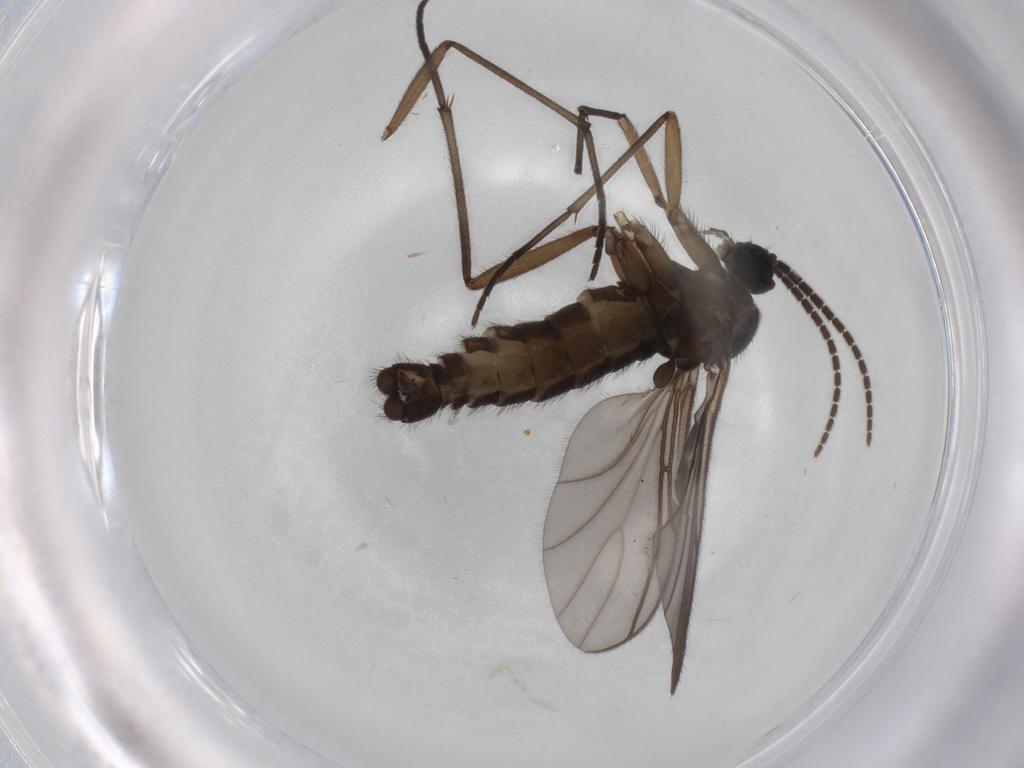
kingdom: Animalia
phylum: Arthropoda
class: Insecta
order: Diptera
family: Sciaridae
